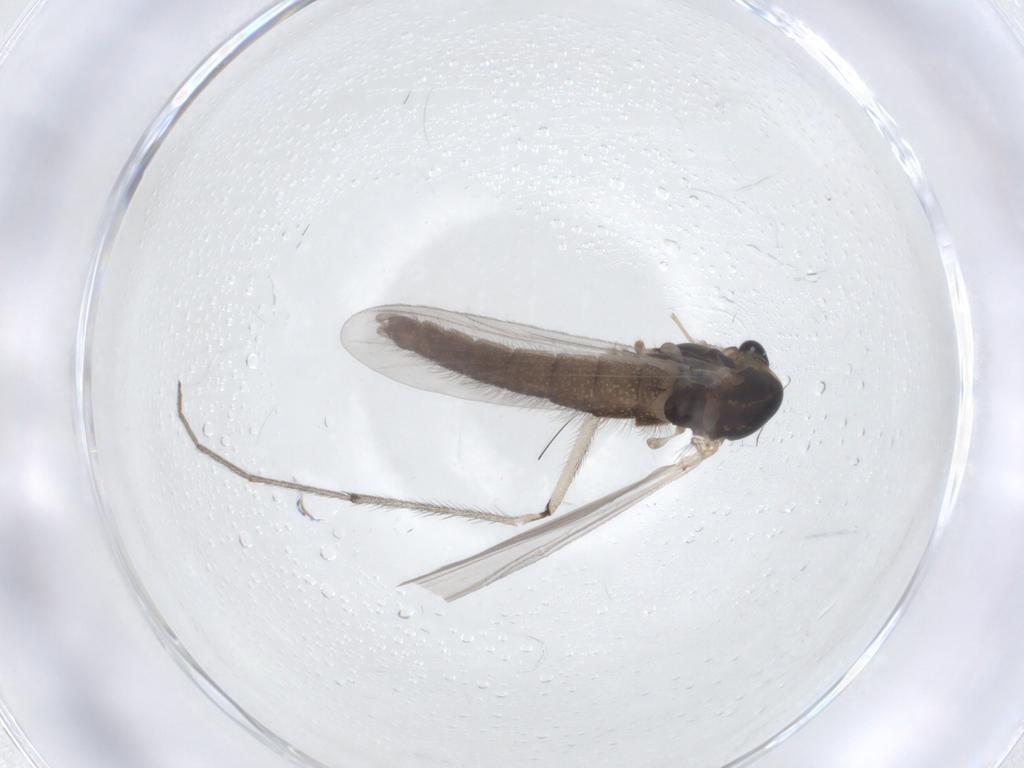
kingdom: Animalia
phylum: Arthropoda
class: Insecta
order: Diptera
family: Chironomidae
